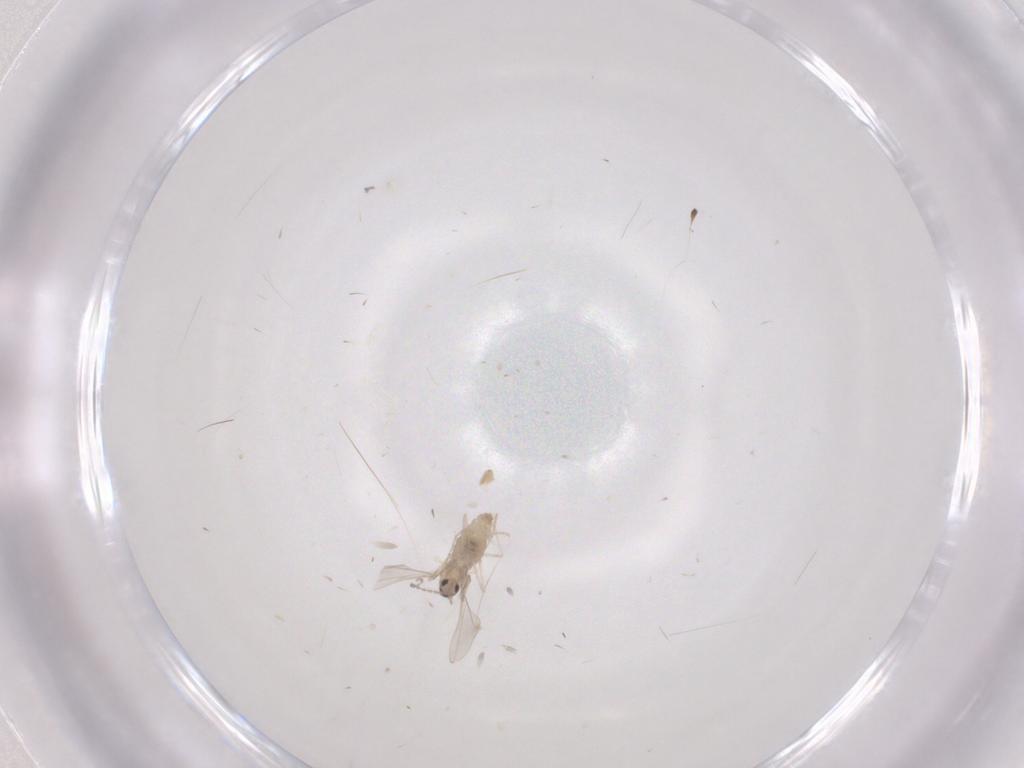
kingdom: Animalia
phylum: Arthropoda
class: Insecta
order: Diptera
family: Cecidomyiidae
